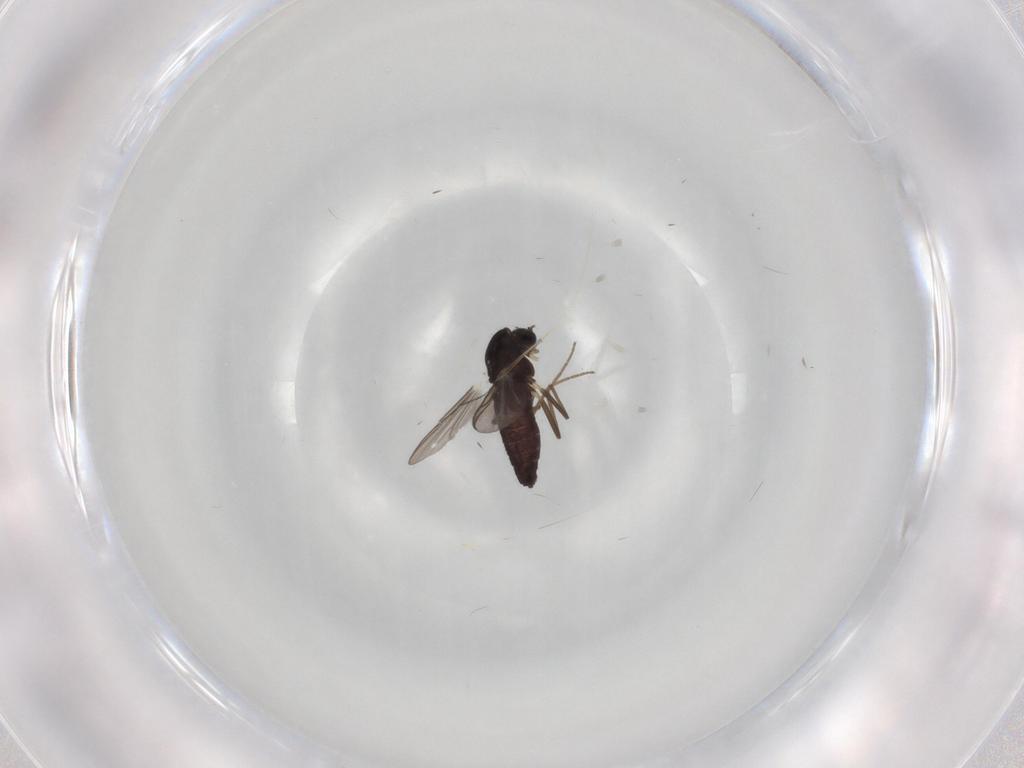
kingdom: Animalia
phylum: Arthropoda
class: Insecta
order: Diptera
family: Chironomidae
